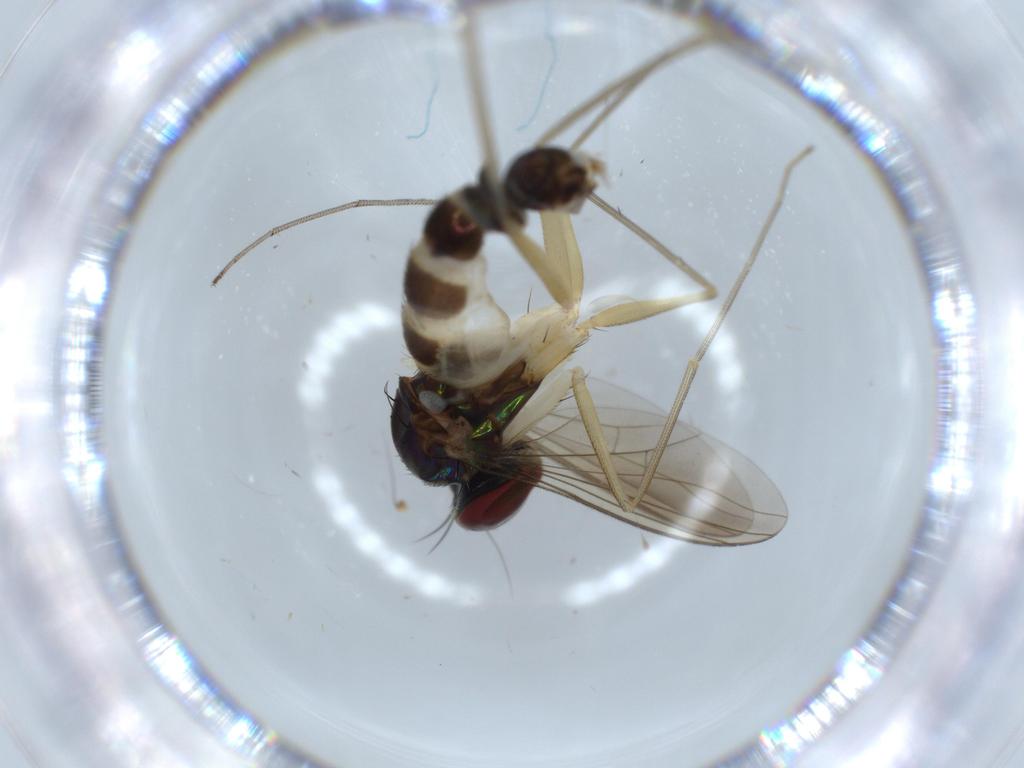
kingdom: Animalia
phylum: Arthropoda
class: Insecta
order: Diptera
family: Dolichopodidae
